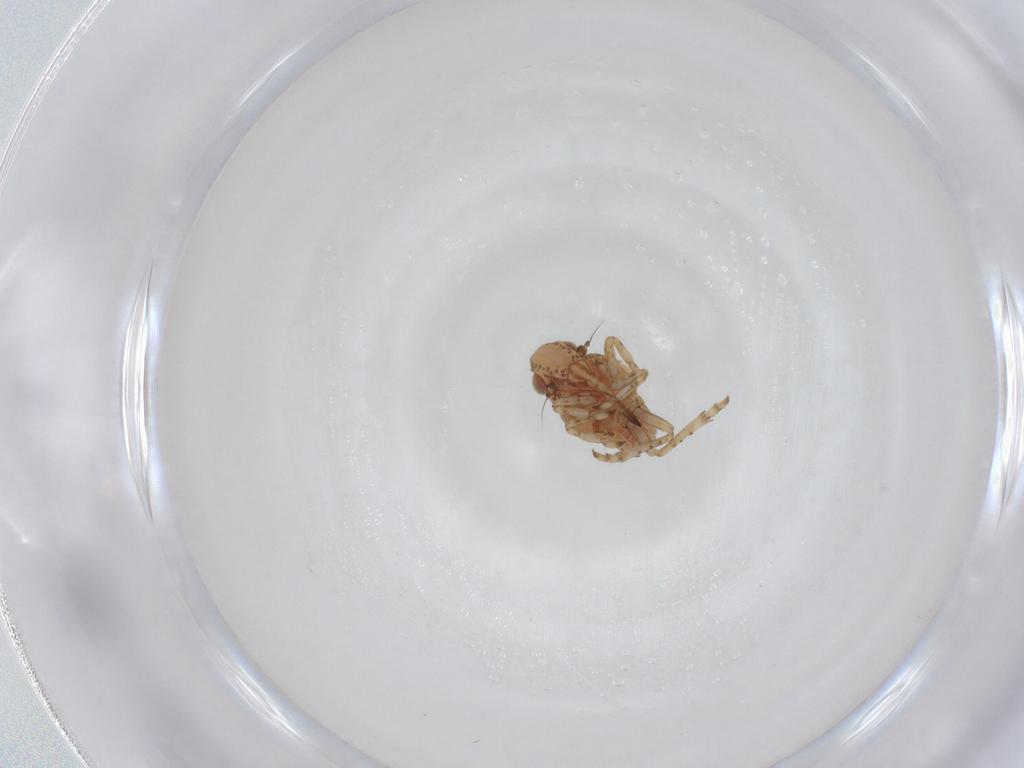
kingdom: Animalia
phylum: Arthropoda
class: Insecta
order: Hemiptera
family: Tropiduchidae
